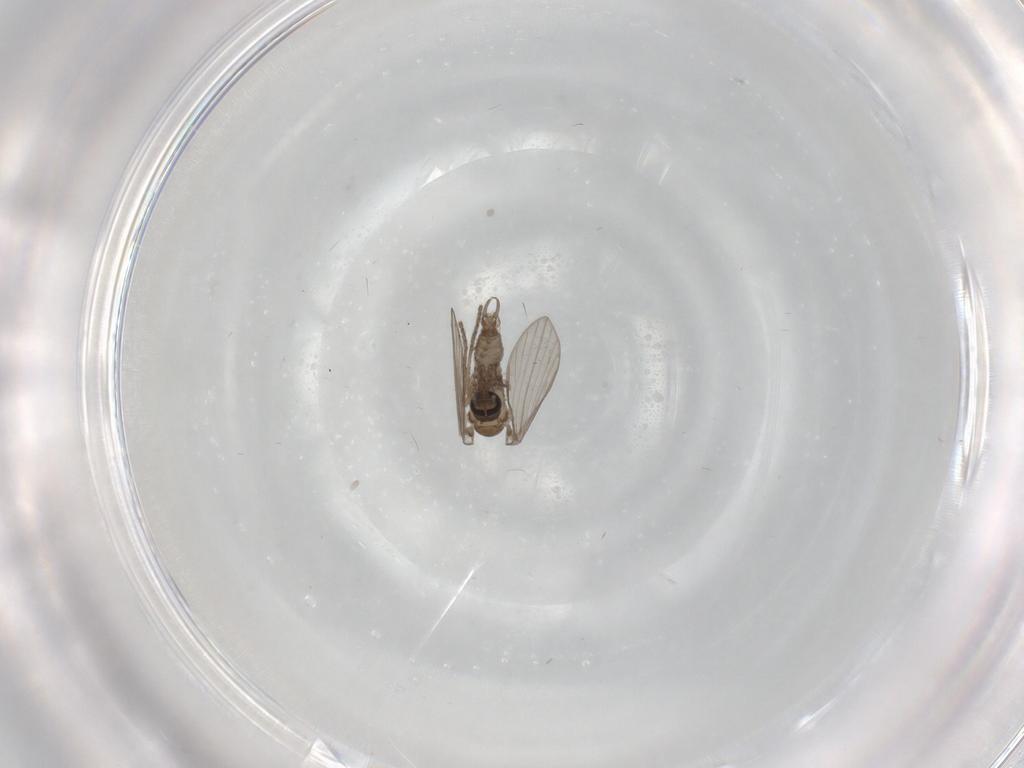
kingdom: Animalia
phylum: Arthropoda
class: Insecta
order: Diptera
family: Psychodidae
